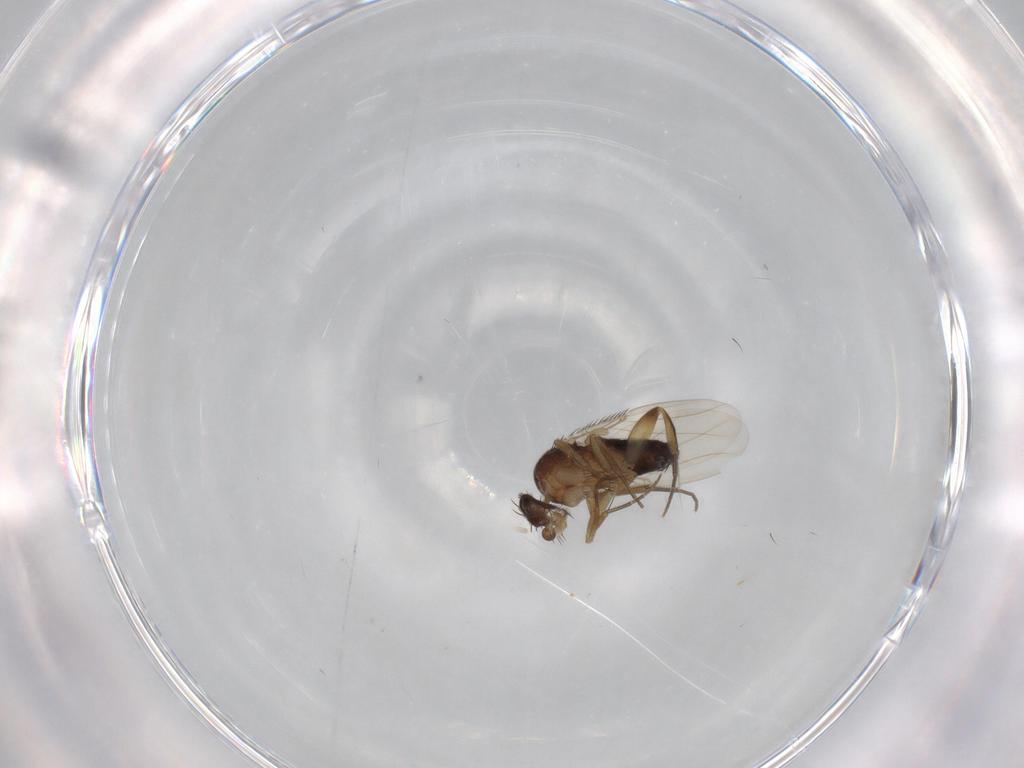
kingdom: Animalia
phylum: Arthropoda
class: Insecta
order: Diptera
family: Phoridae
